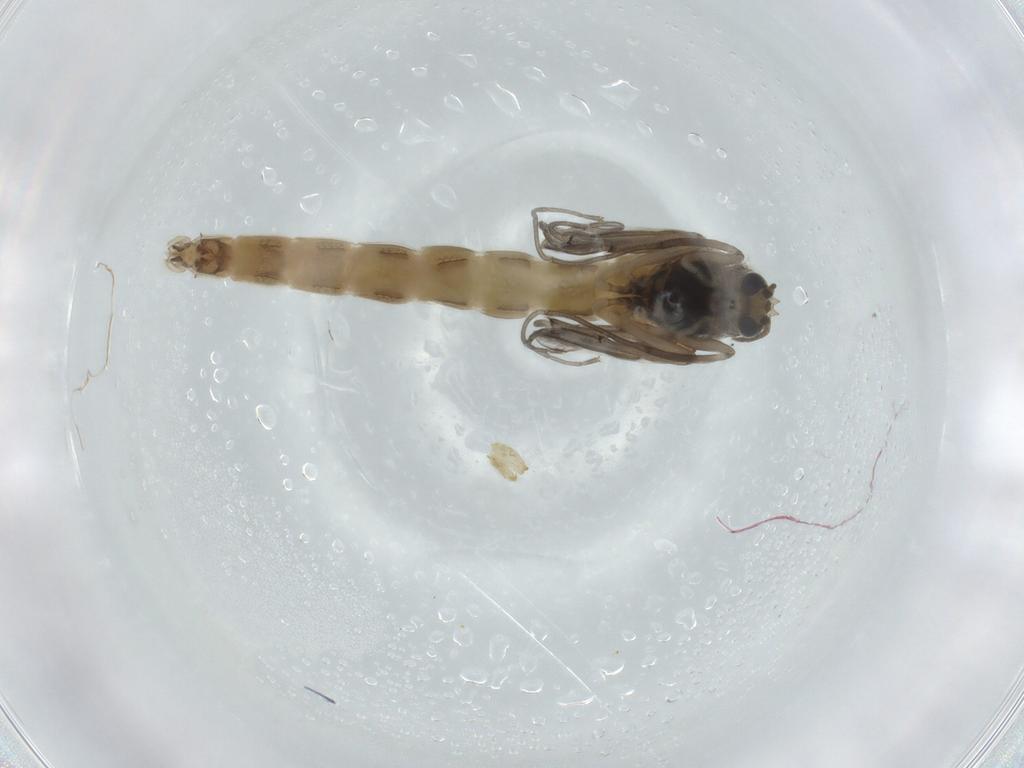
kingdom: Animalia
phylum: Arthropoda
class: Insecta
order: Diptera
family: Chironomidae
